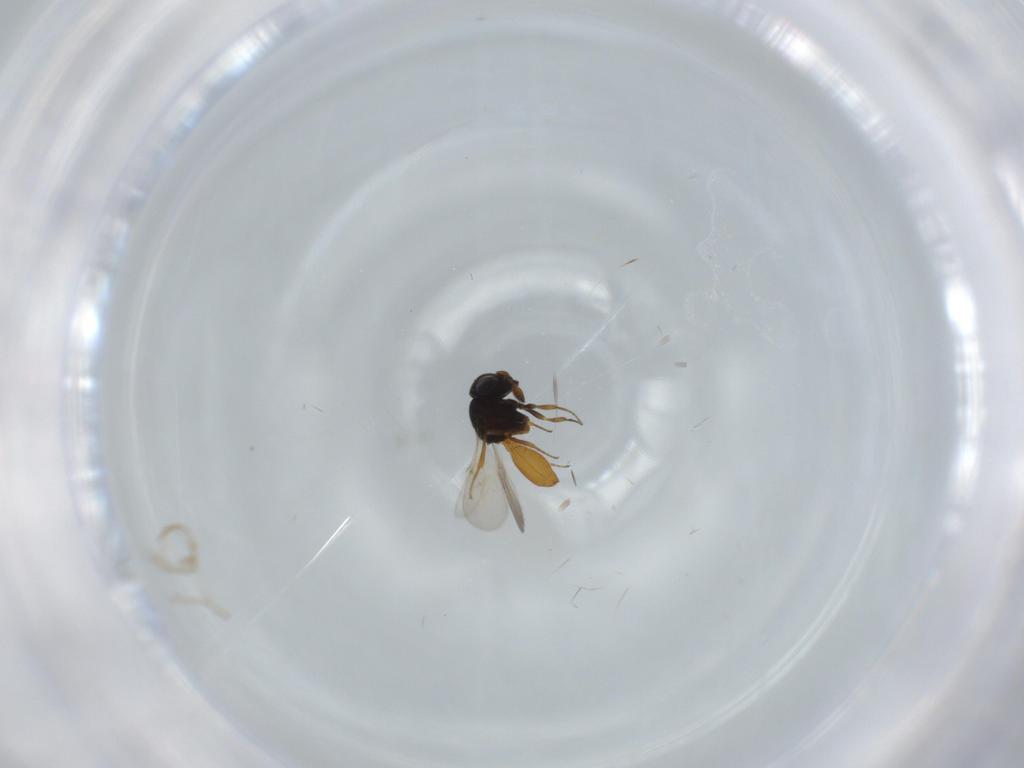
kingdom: Animalia
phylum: Arthropoda
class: Insecta
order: Hymenoptera
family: Scelionidae
